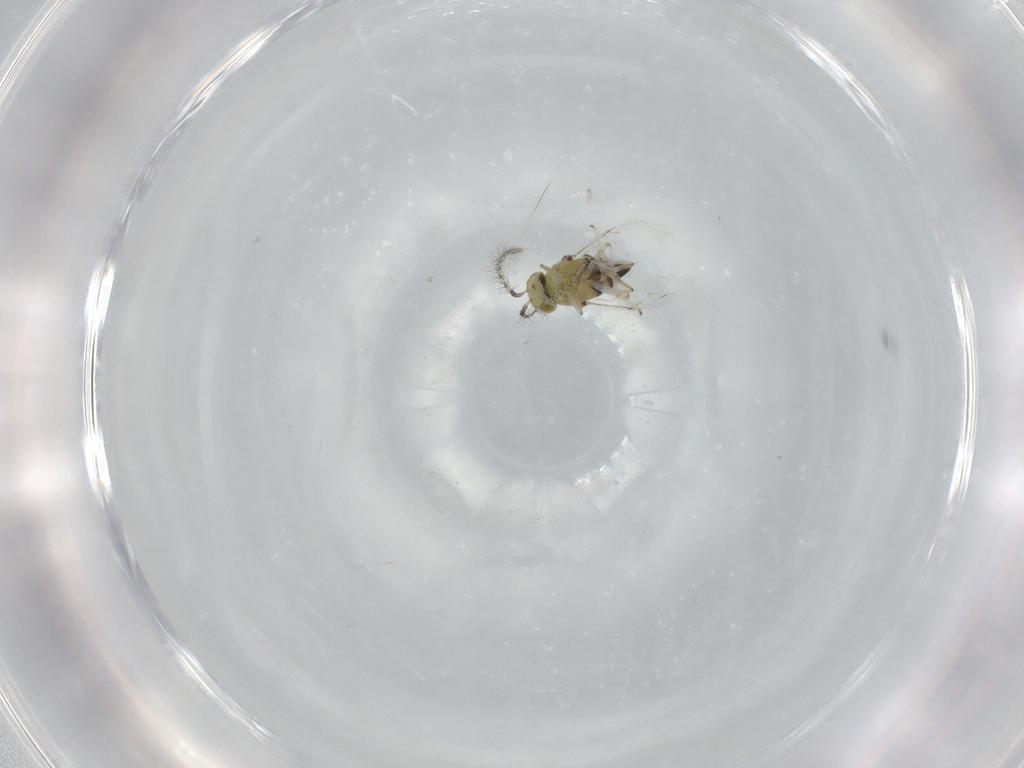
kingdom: Animalia
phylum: Arthropoda
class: Insecta
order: Hymenoptera
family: Encyrtidae
